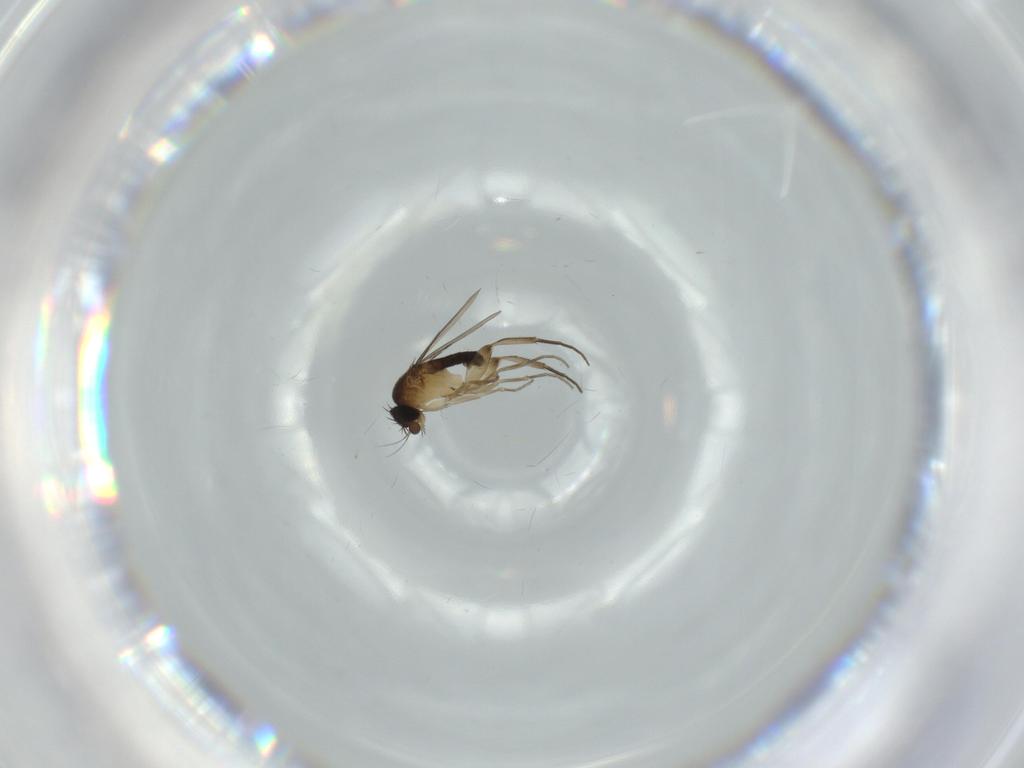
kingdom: Animalia
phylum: Arthropoda
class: Insecta
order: Diptera
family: Phoridae
